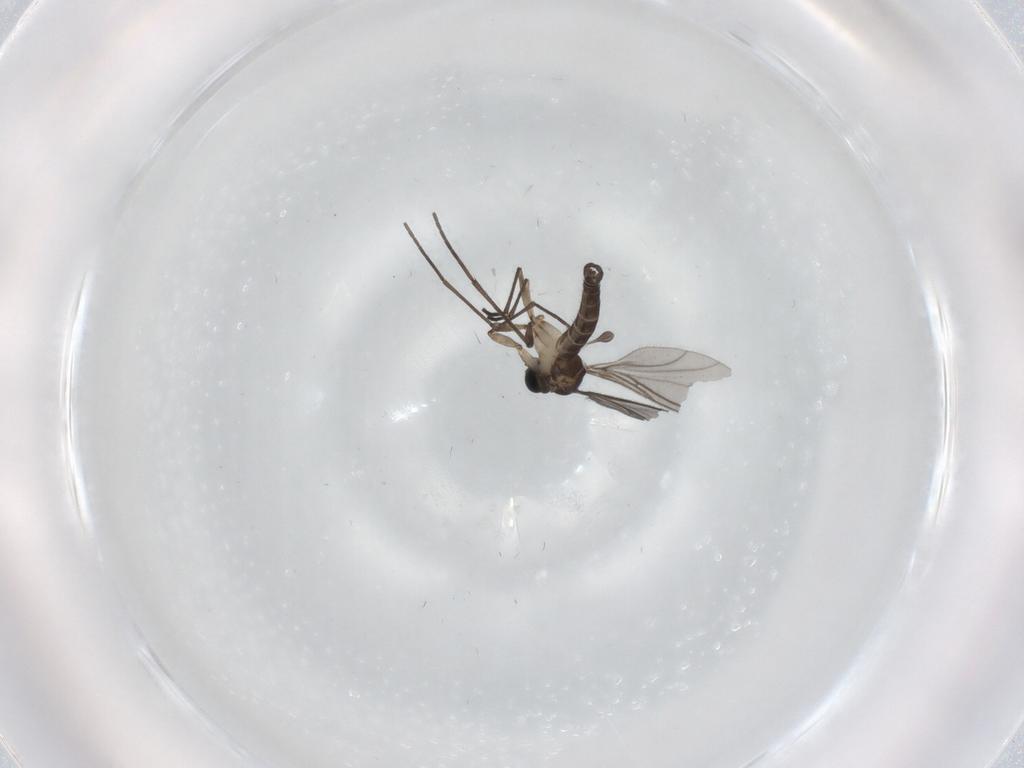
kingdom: Animalia
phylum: Arthropoda
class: Insecta
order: Diptera
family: Sciaridae
